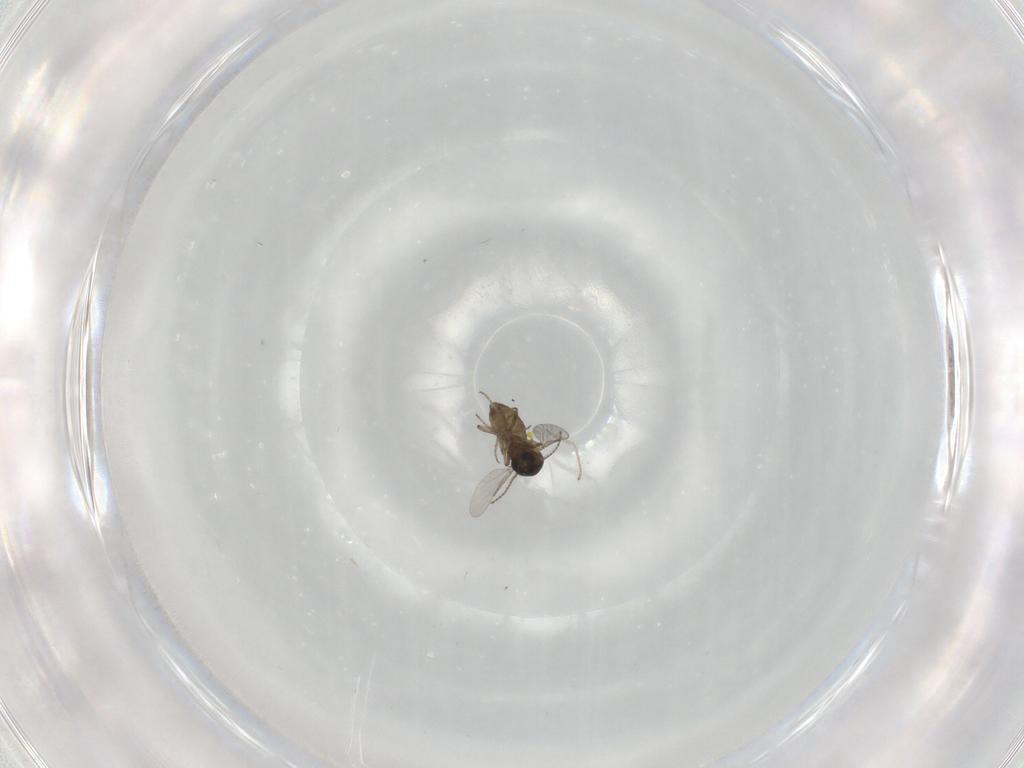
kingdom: Animalia
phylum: Arthropoda
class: Insecta
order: Diptera
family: Ceratopogonidae
